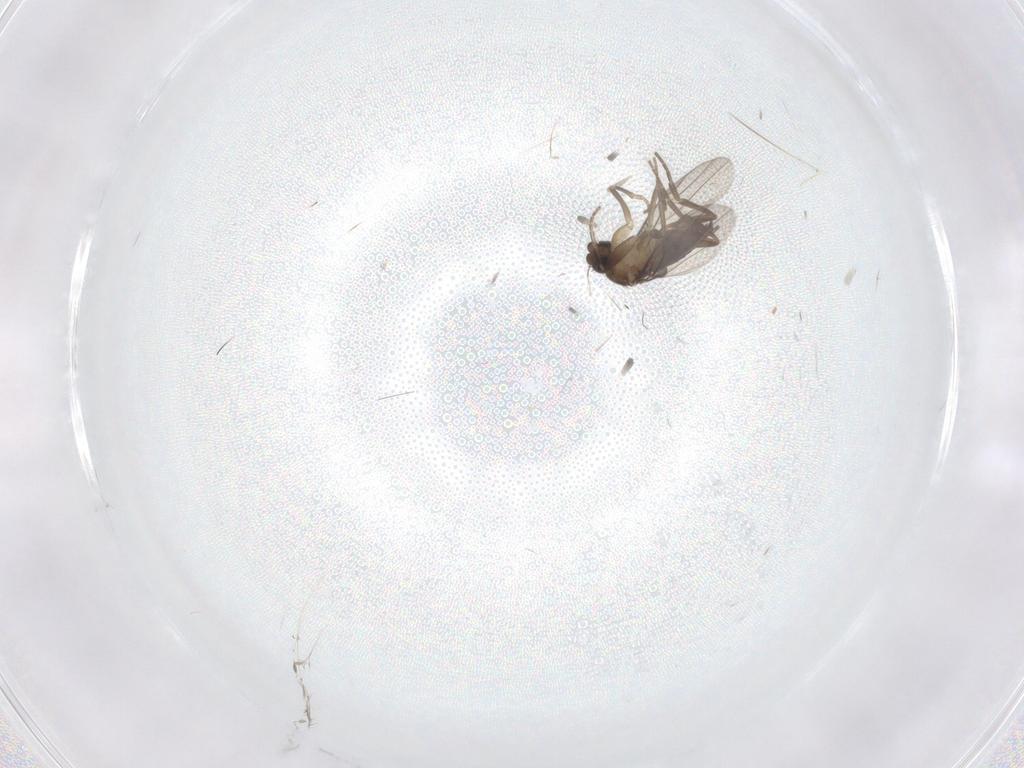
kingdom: Animalia
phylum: Arthropoda
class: Insecta
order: Diptera
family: Phoridae
